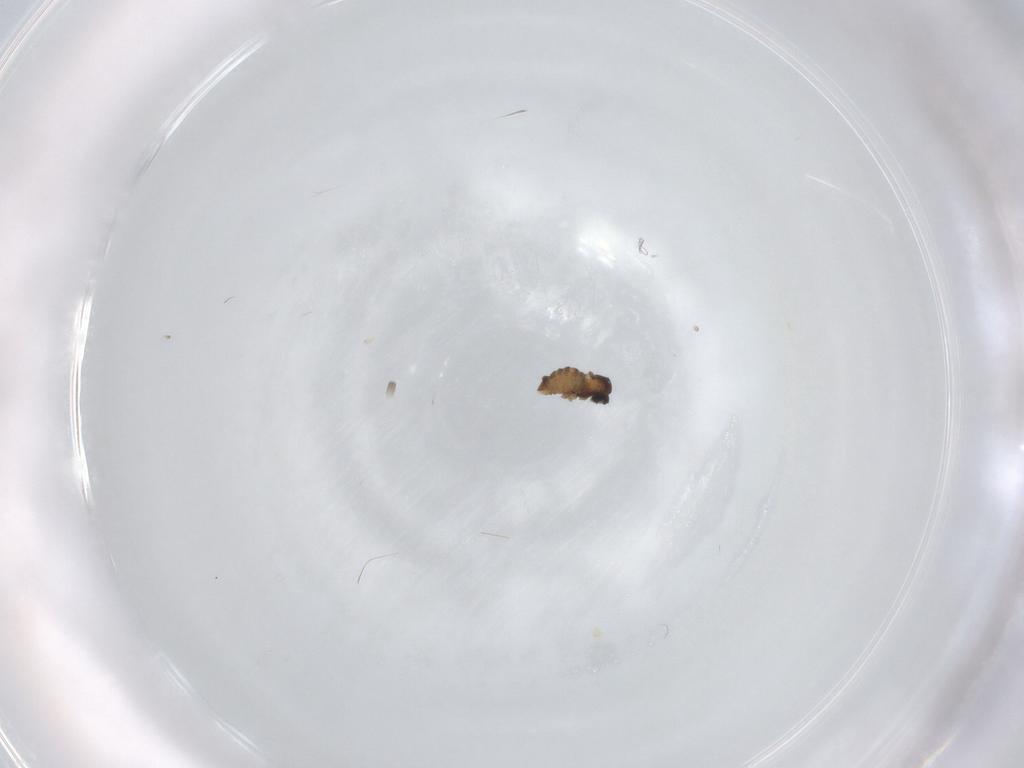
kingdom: Animalia
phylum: Arthropoda
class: Insecta
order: Diptera
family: Cecidomyiidae
